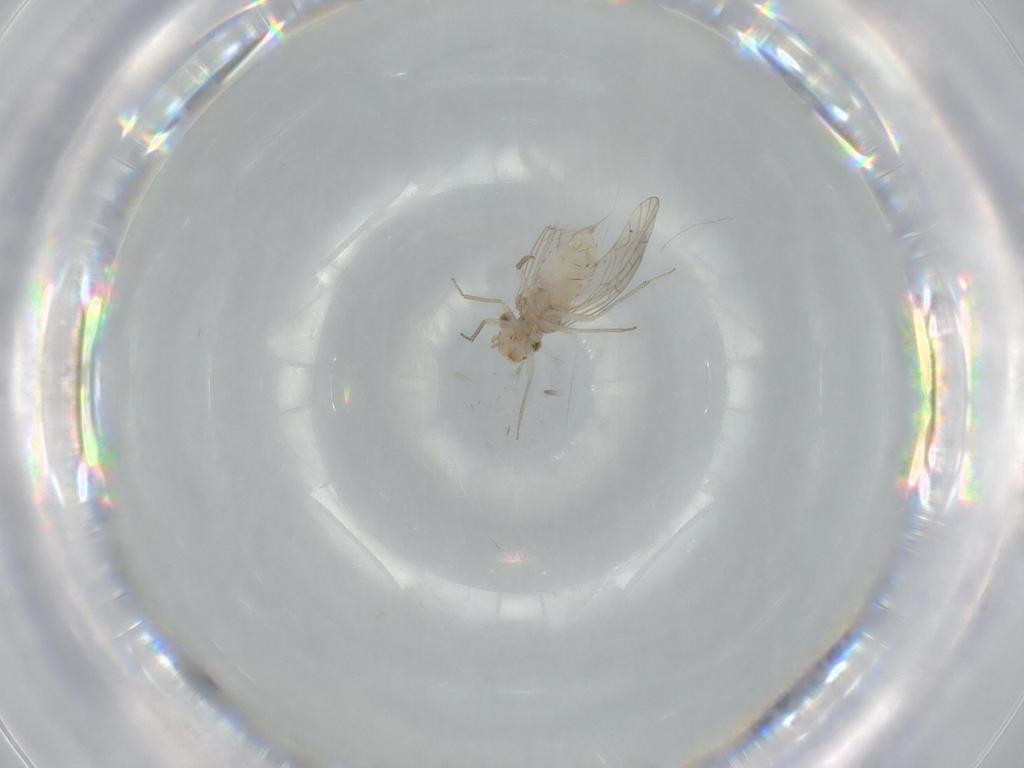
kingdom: Animalia
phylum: Arthropoda
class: Insecta
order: Psocodea
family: Lachesillidae
